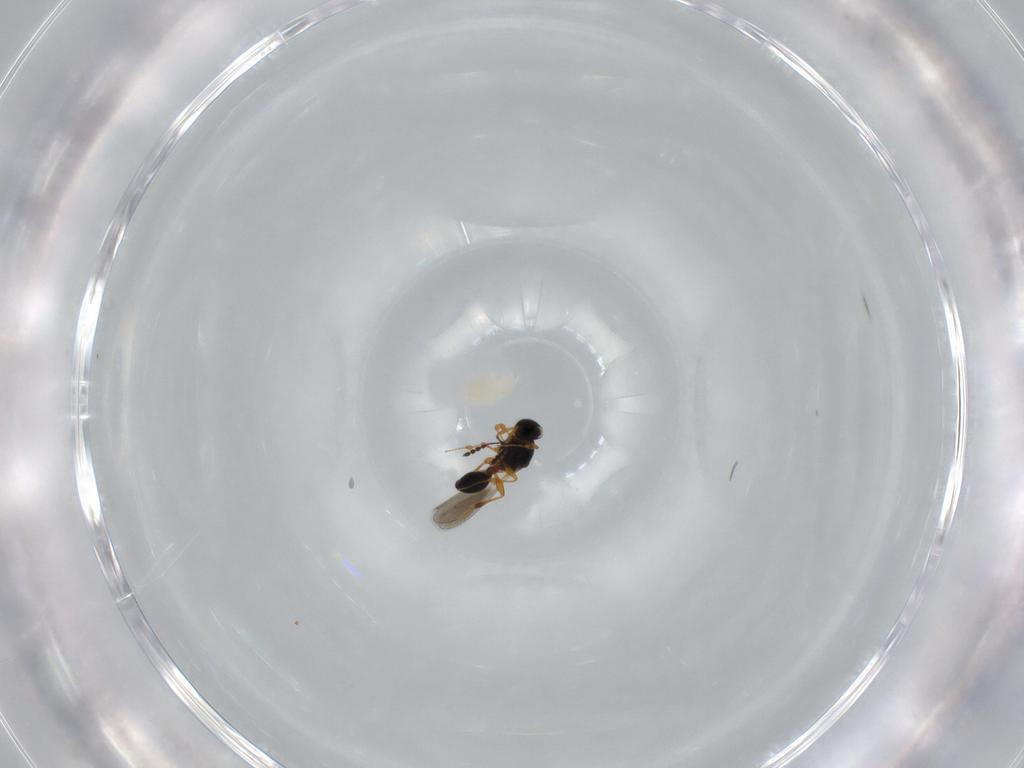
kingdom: Animalia
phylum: Arthropoda
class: Insecta
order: Hymenoptera
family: Platygastridae
